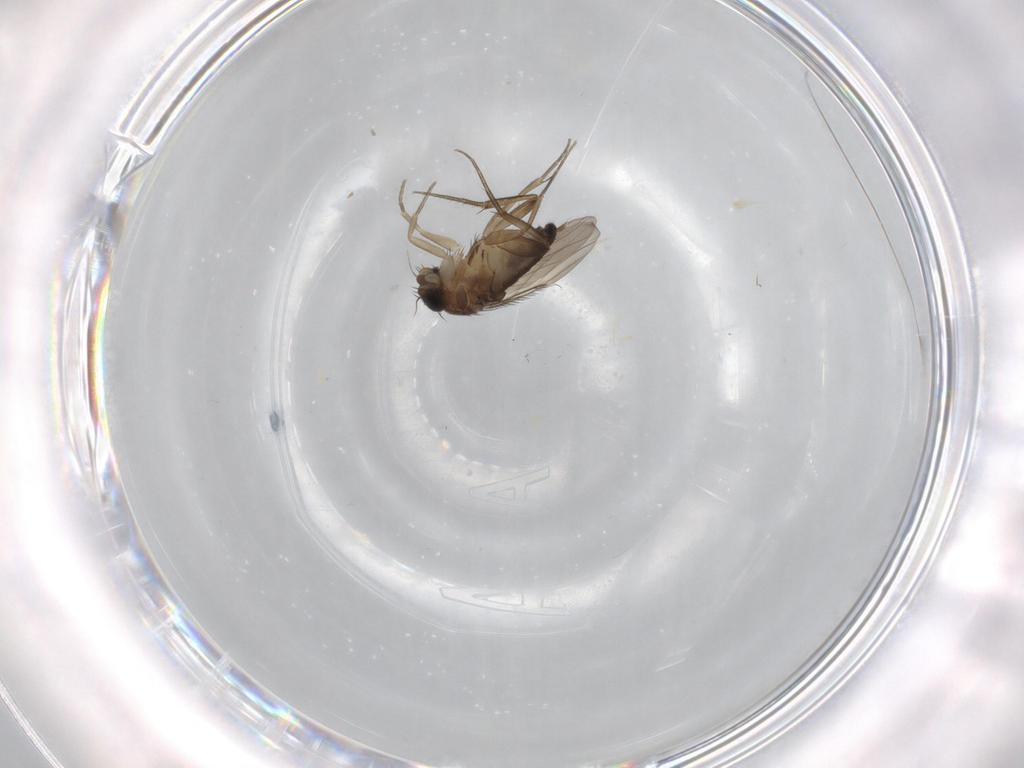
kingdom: Animalia
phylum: Arthropoda
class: Insecta
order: Diptera
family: Phoridae
